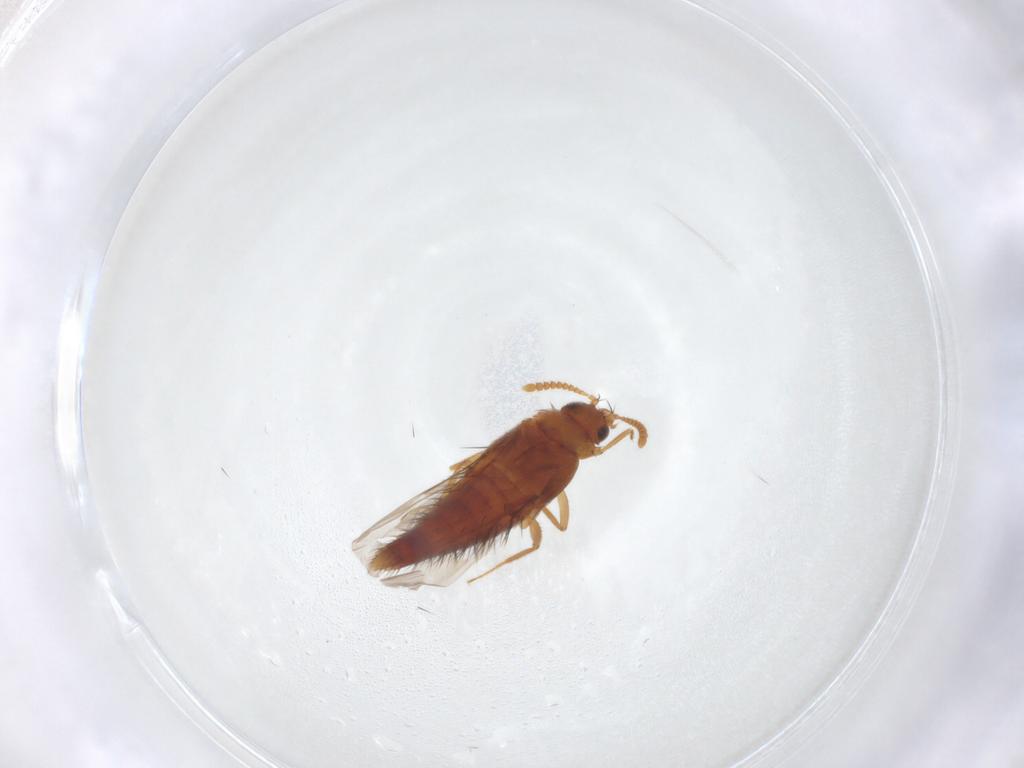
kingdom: Animalia
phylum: Arthropoda
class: Insecta
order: Coleoptera
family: Staphylinidae
